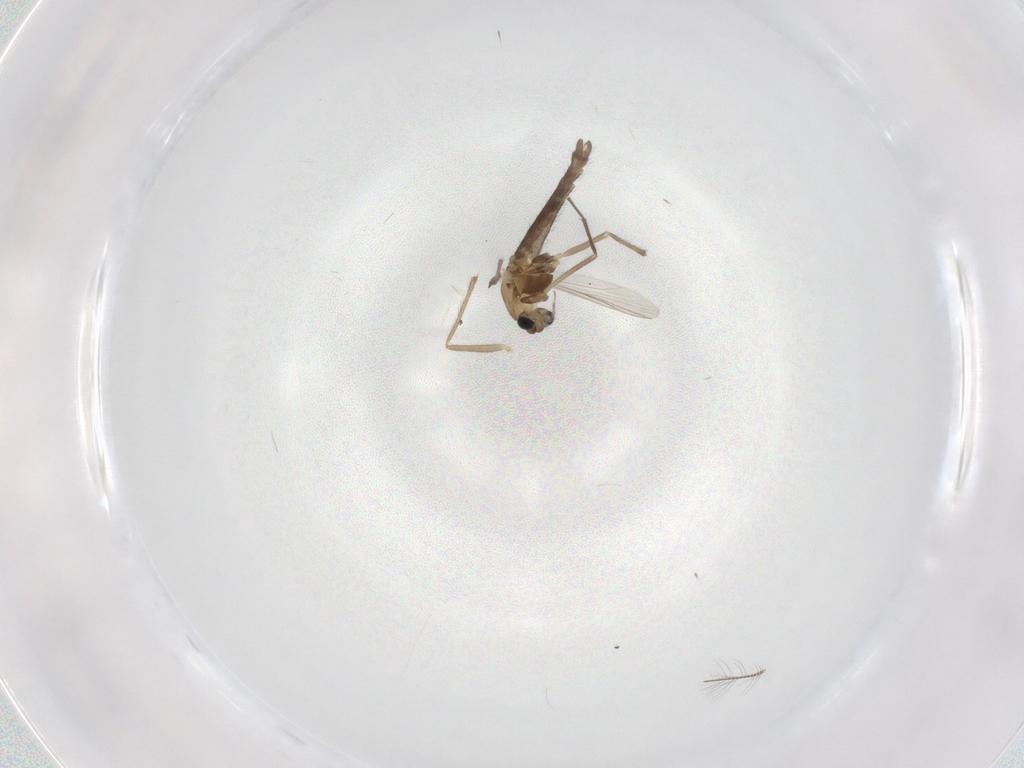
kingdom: Animalia
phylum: Arthropoda
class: Insecta
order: Diptera
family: Chironomidae
